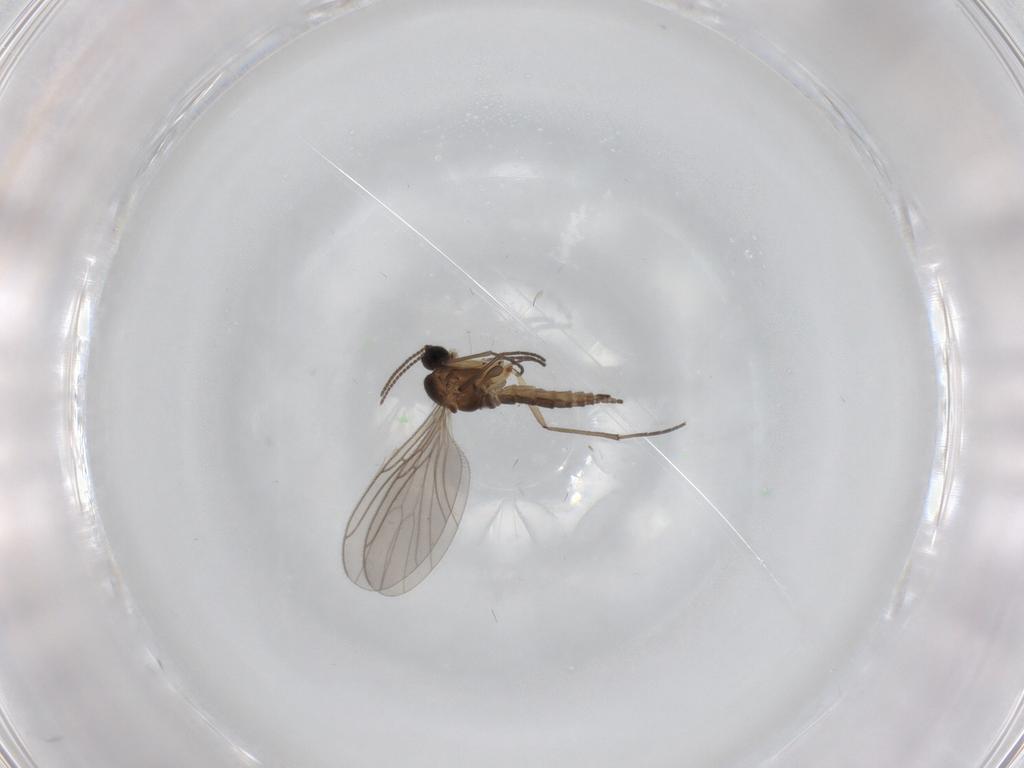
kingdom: Animalia
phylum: Arthropoda
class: Insecta
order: Diptera
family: Sciaridae
